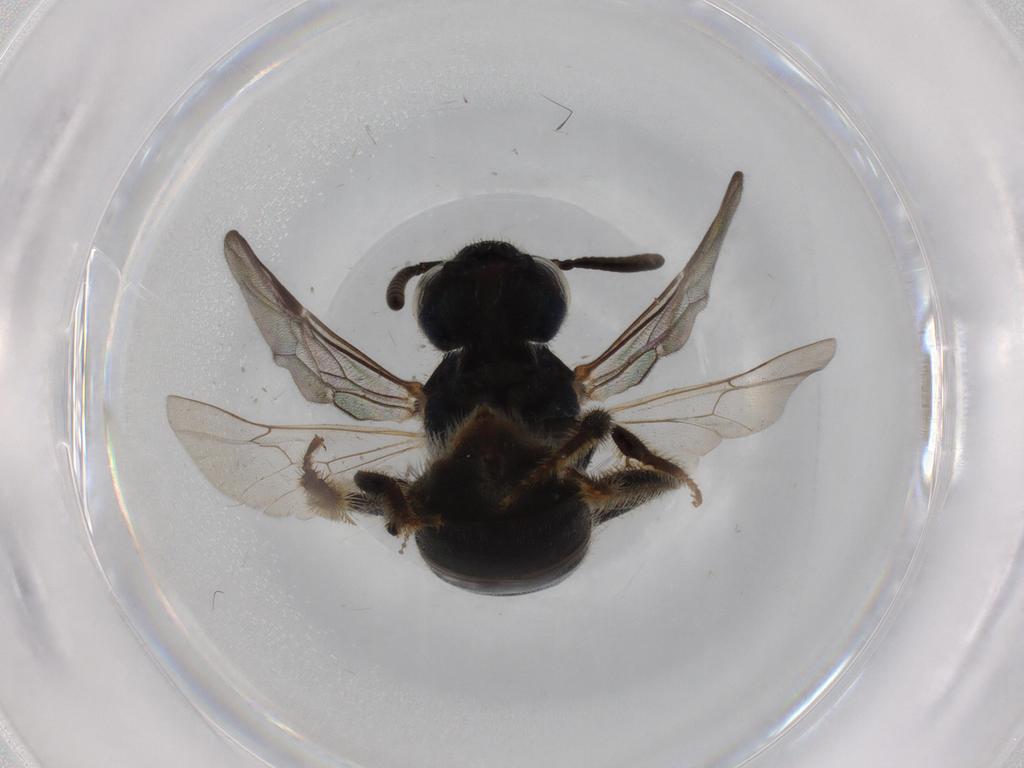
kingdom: Animalia
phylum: Arthropoda
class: Insecta
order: Hymenoptera
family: Halictidae
